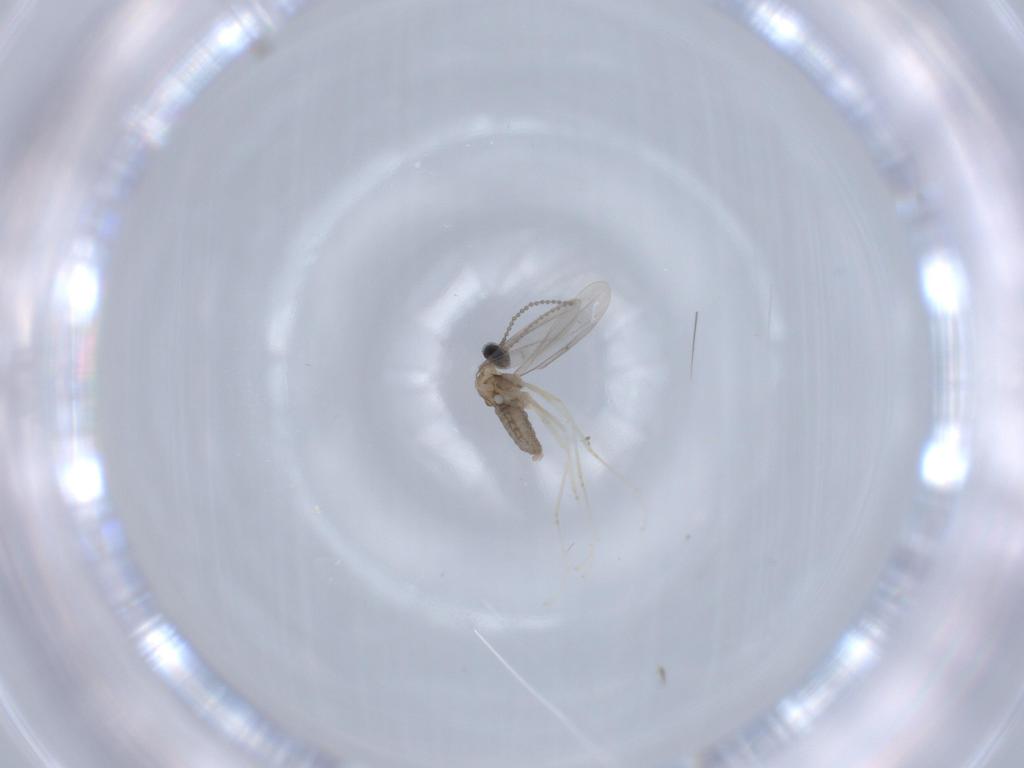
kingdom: Animalia
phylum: Arthropoda
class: Insecta
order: Diptera
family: Cecidomyiidae
